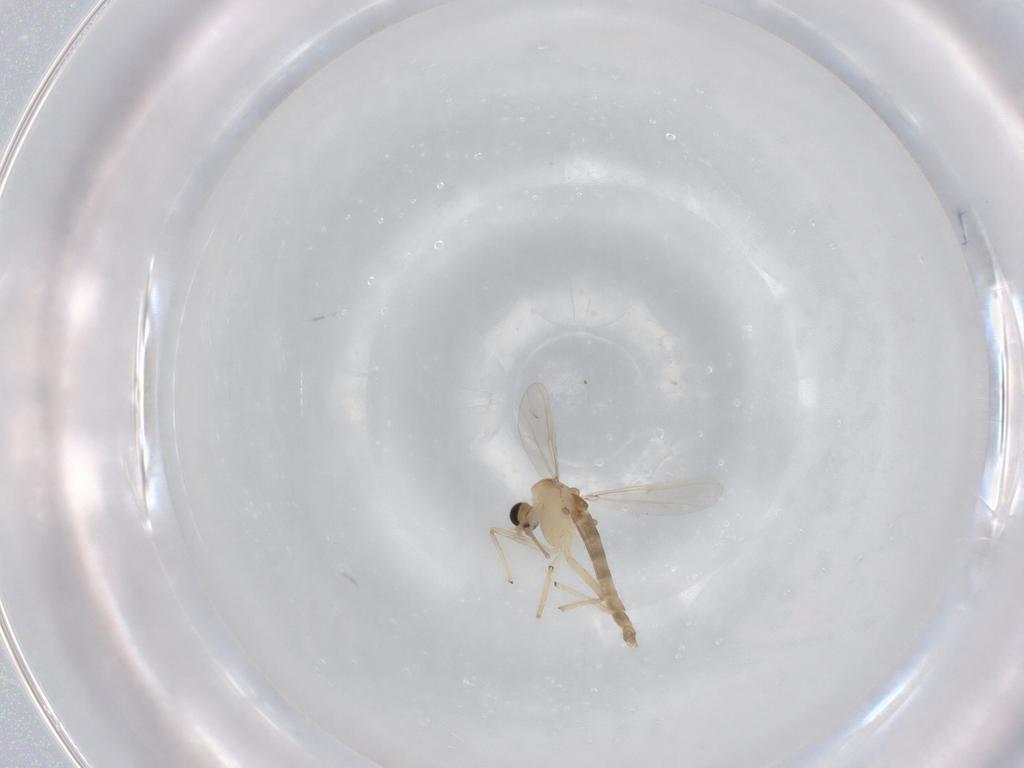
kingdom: Animalia
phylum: Arthropoda
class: Insecta
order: Diptera
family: Chironomidae
